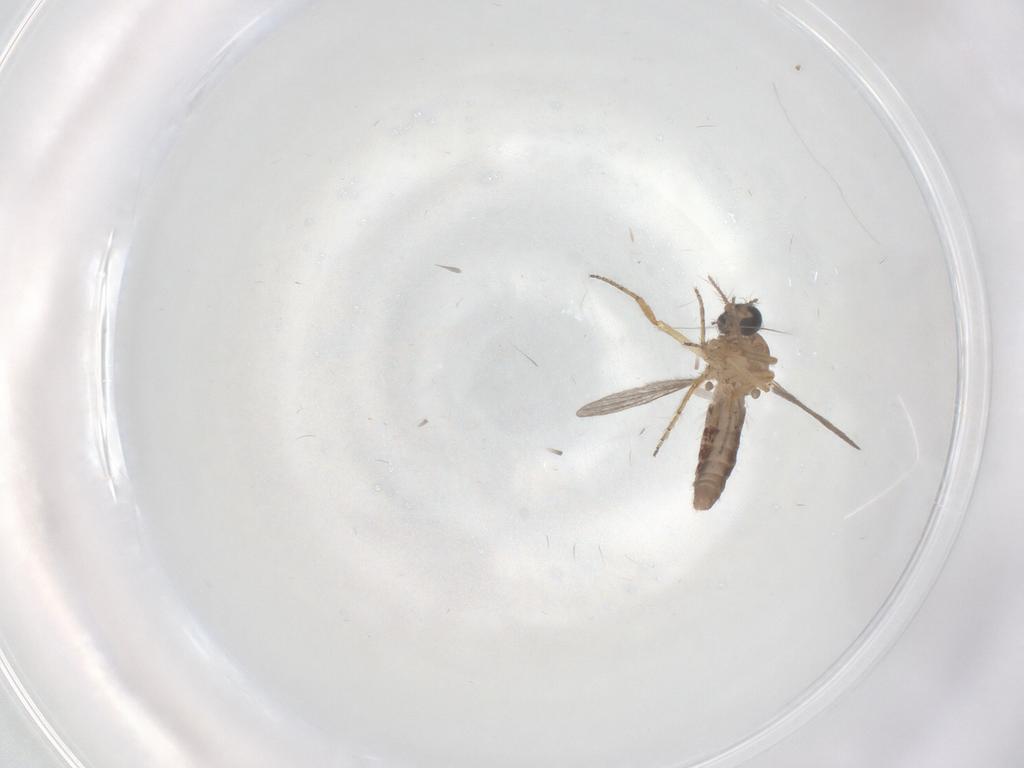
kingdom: Animalia
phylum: Arthropoda
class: Insecta
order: Diptera
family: Ceratopogonidae
